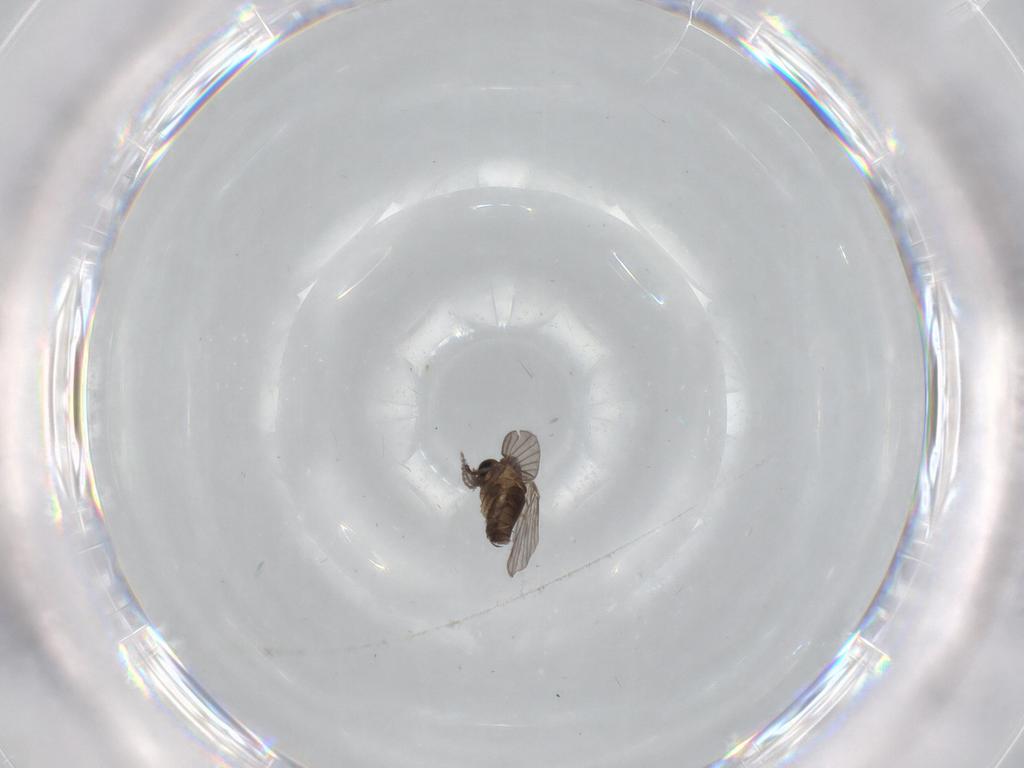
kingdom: Animalia
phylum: Arthropoda
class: Insecta
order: Diptera
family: Cecidomyiidae
